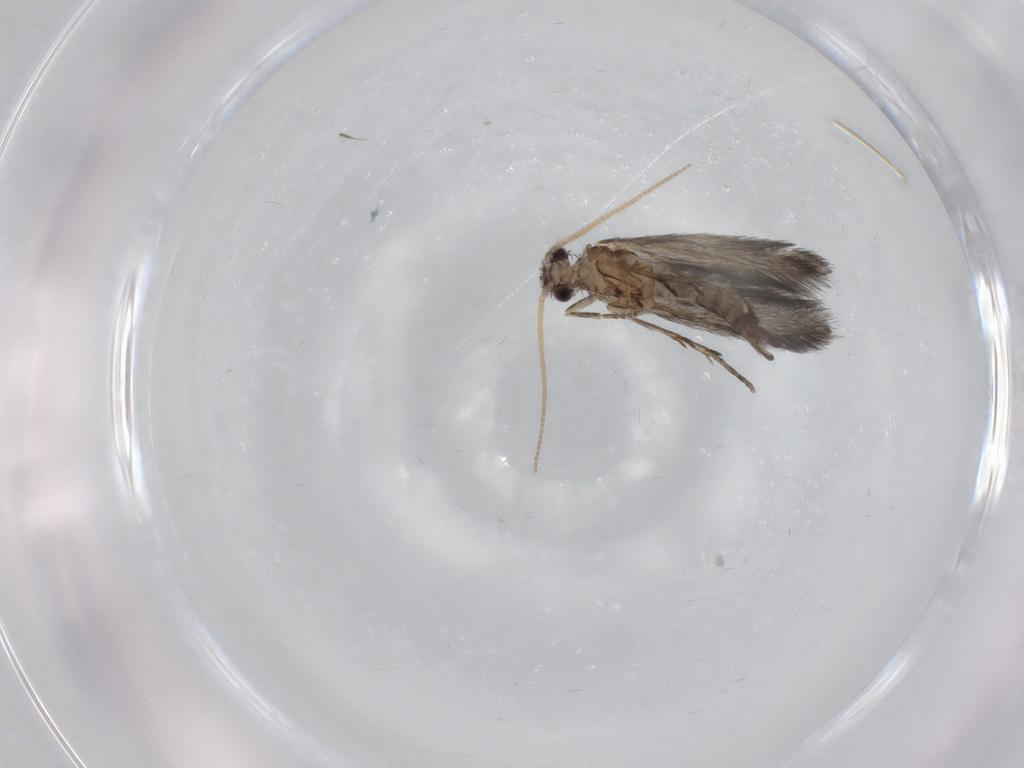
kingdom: Animalia
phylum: Arthropoda
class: Insecta
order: Trichoptera
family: Hydroptilidae
